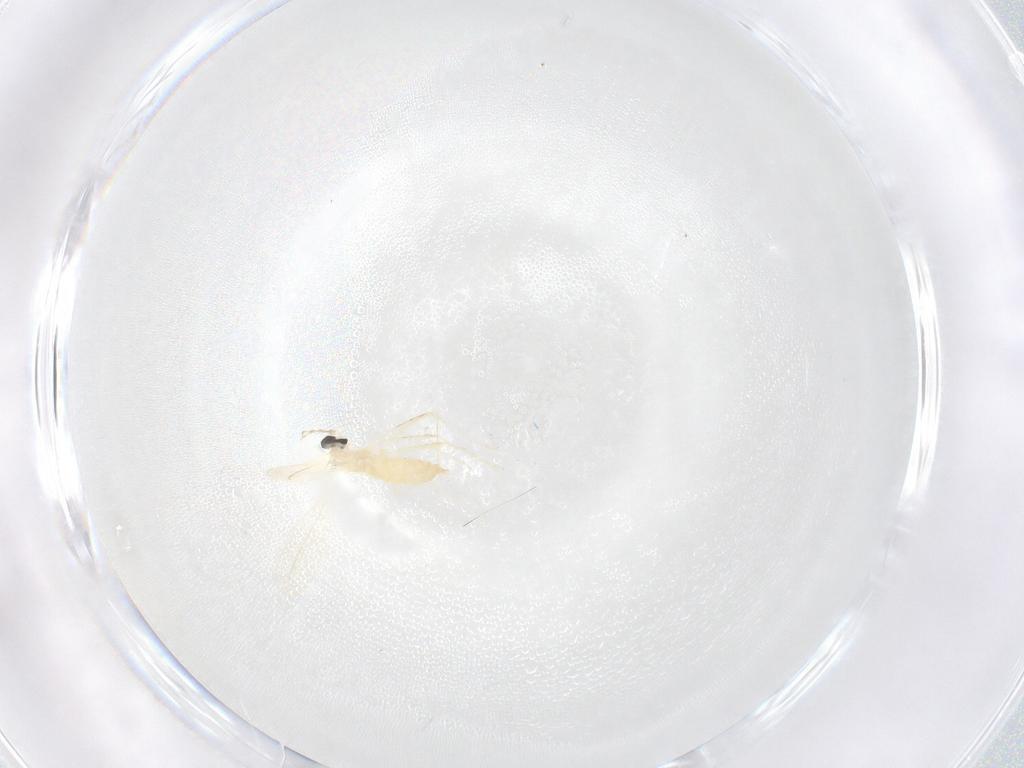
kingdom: Animalia
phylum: Arthropoda
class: Insecta
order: Diptera
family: Cecidomyiidae
